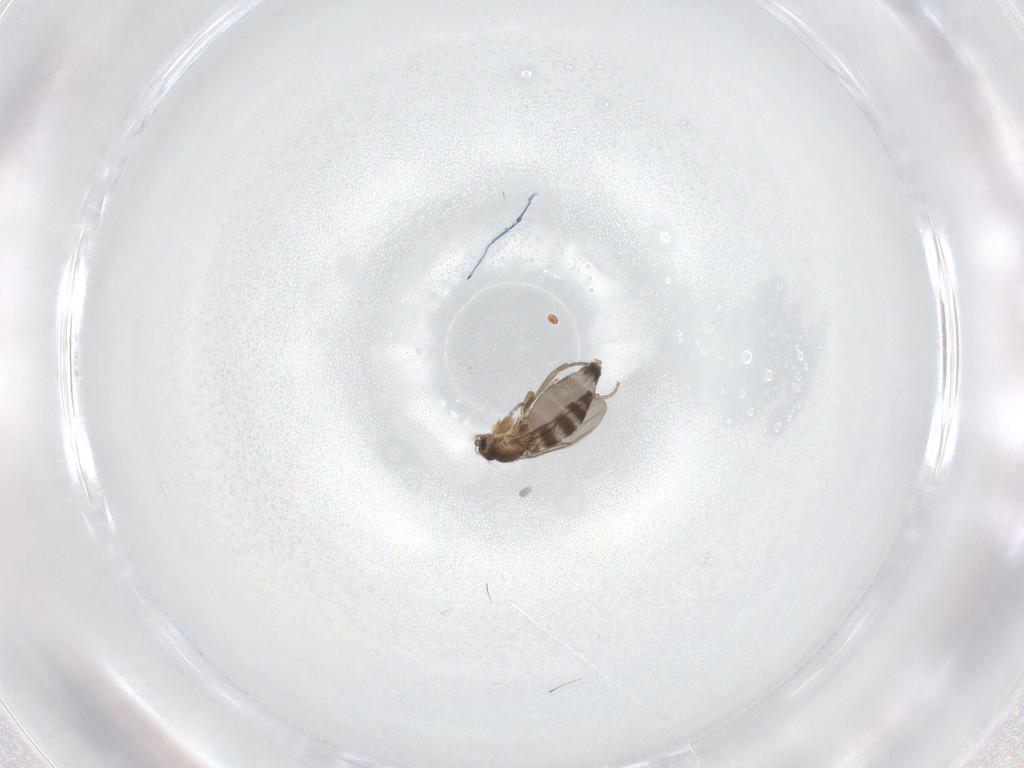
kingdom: Animalia
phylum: Arthropoda
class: Insecta
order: Diptera
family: Phoridae
